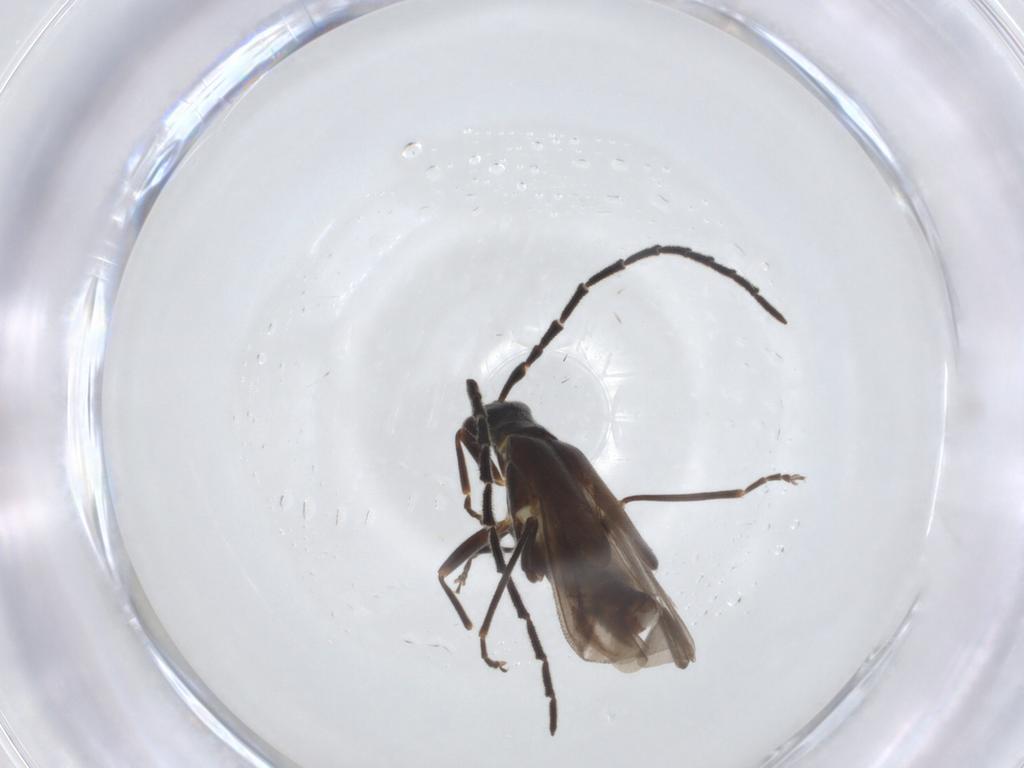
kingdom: Animalia
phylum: Arthropoda
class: Insecta
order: Coleoptera
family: Cantharidae
